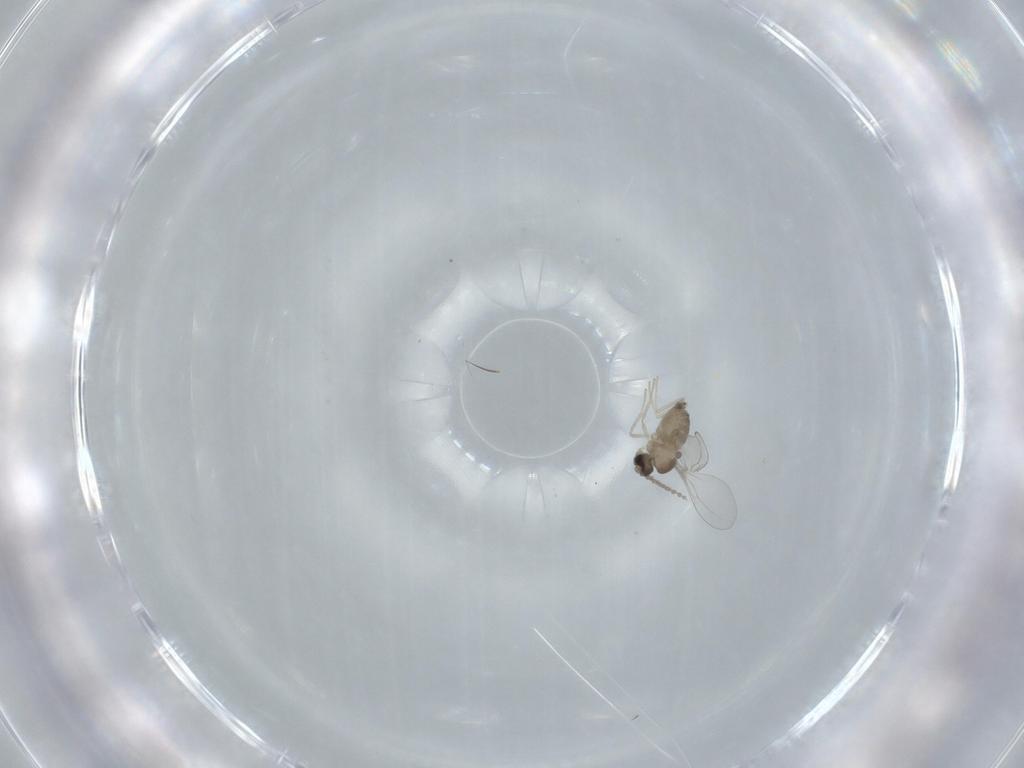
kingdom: Animalia
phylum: Arthropoda
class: Insecta
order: Diptera
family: Cecidomyiidae
